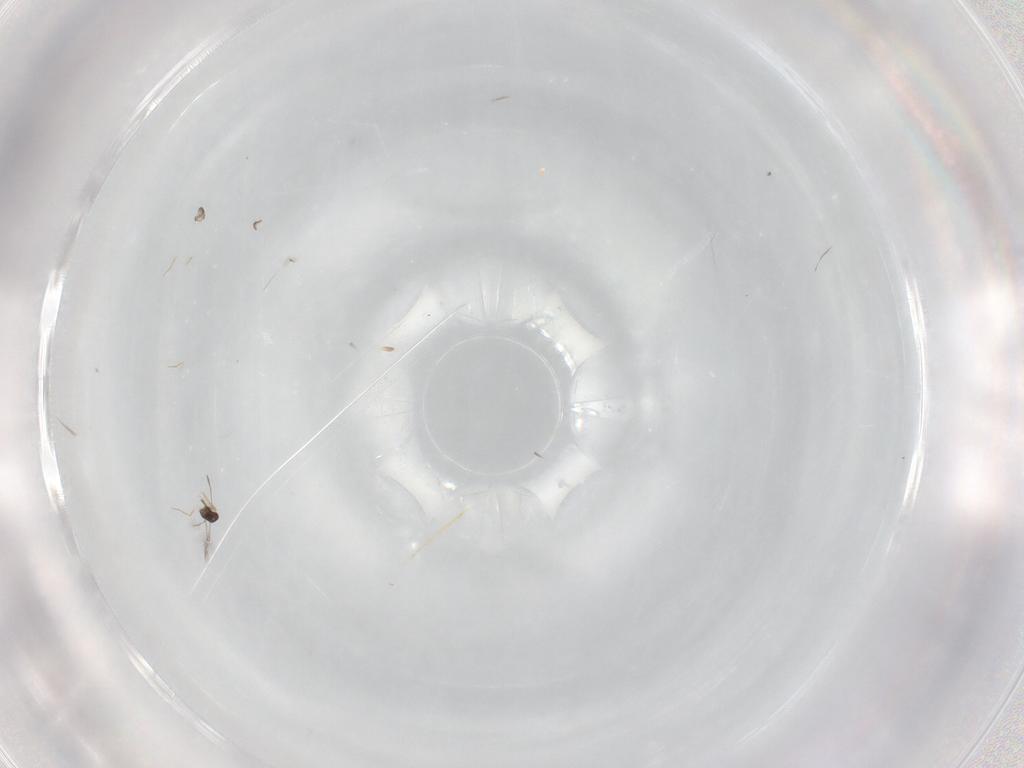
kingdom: Animalia
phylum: Arthropoda
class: Insecta
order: Hymenoptera
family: Mymaridae
